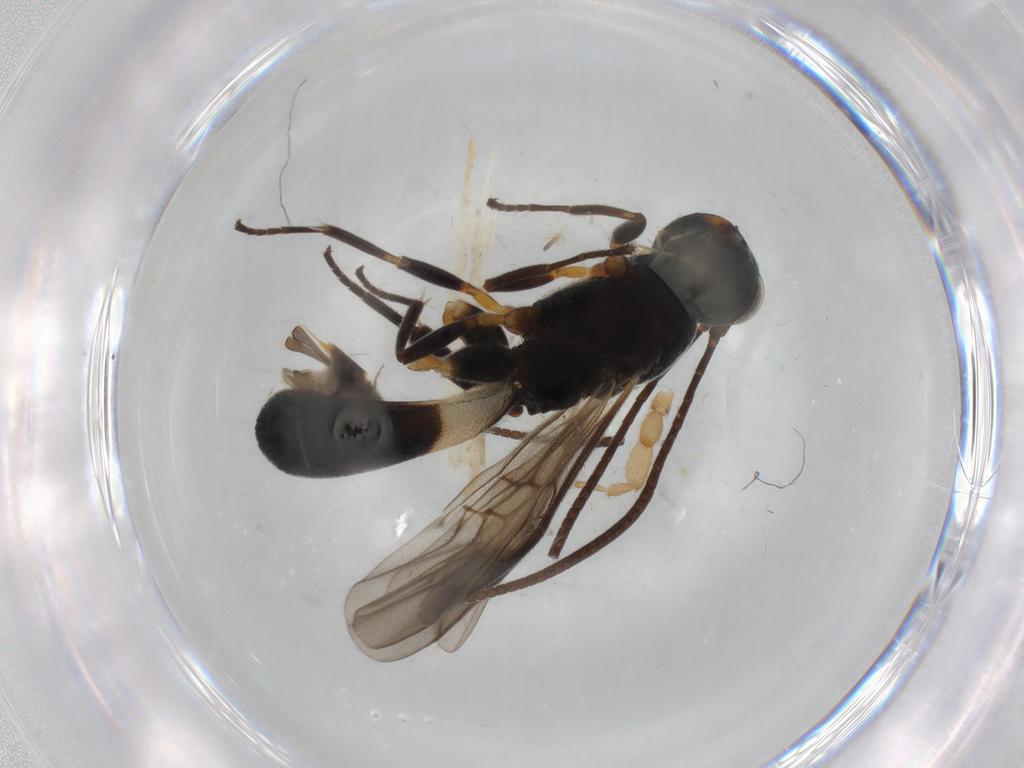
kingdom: Animalia
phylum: Arthropoda
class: Insecta
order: Hymenoptera
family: Braconidae
